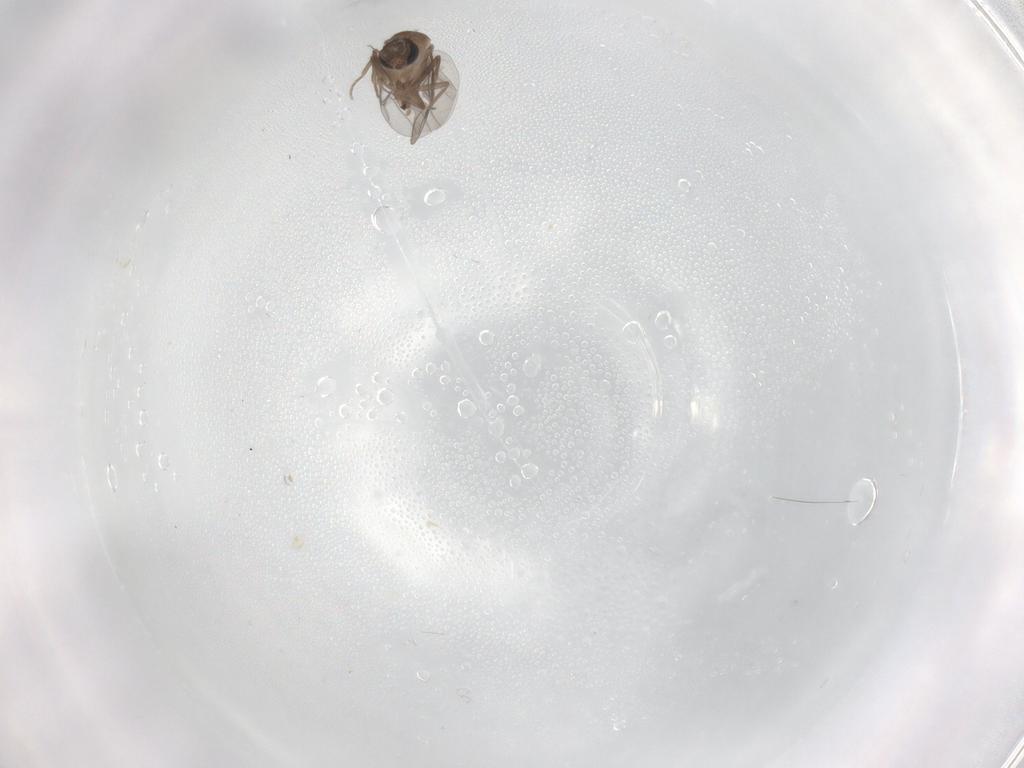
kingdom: Animalia
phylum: Arthropoda
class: Insecta
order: Diptera
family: Chironomidae
